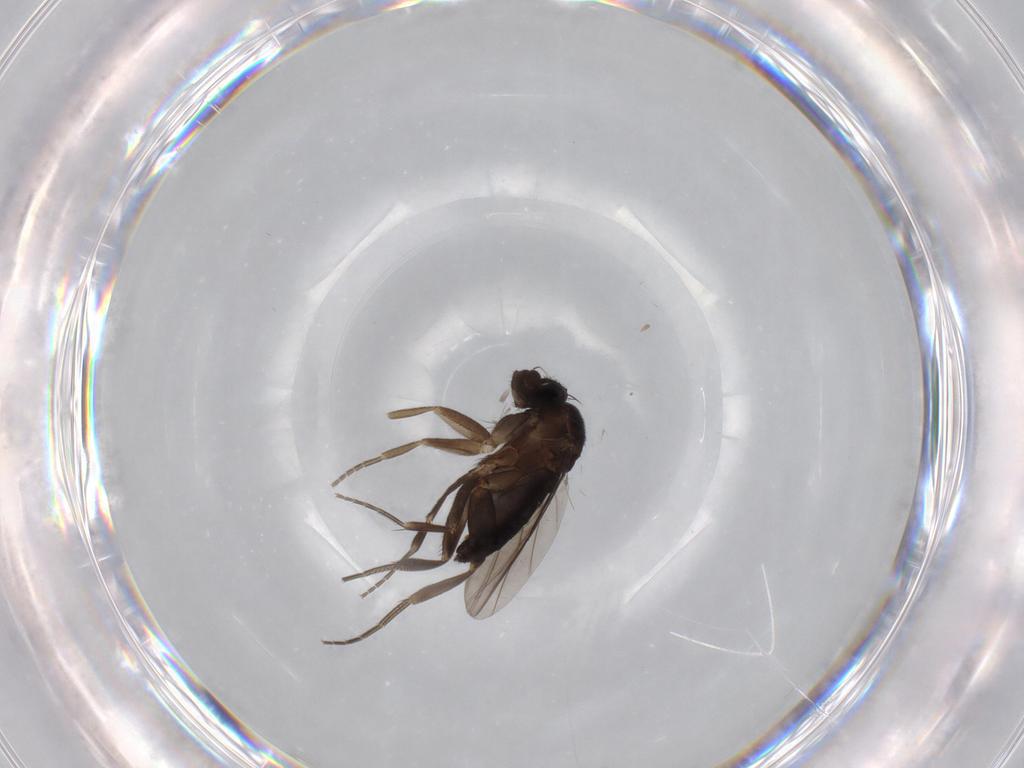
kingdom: Animalia
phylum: Arthropoda
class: Insecta
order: Diptera
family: Phoridae
